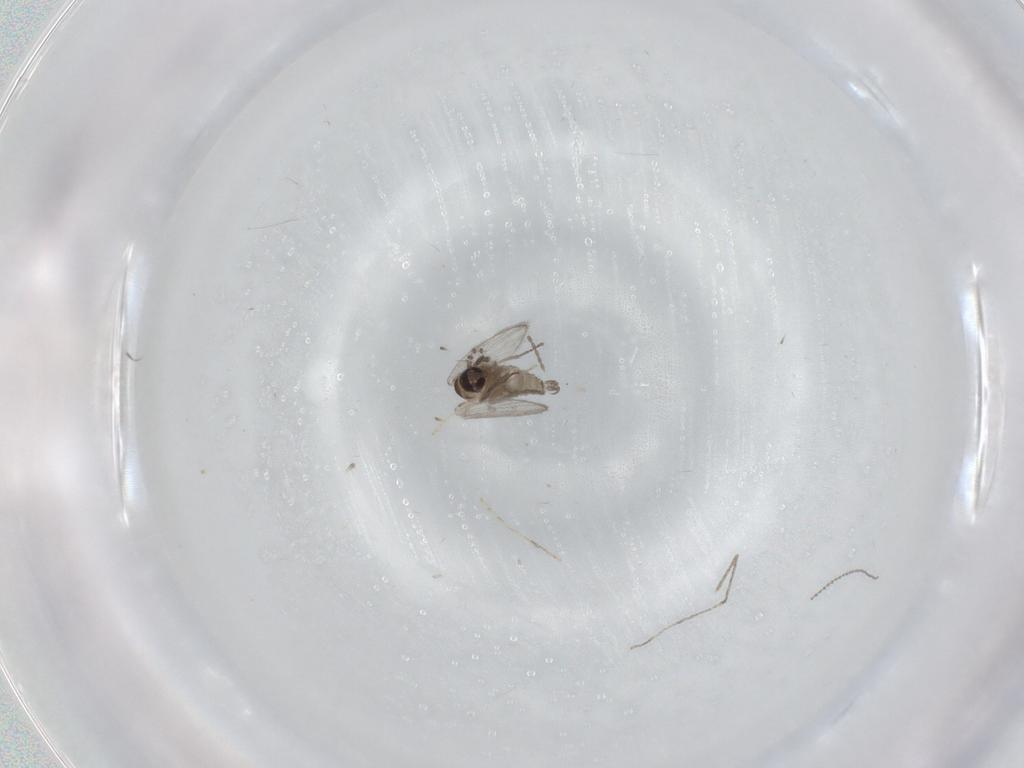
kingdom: Animalia
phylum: Arthropoda
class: Insecta
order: Diptera
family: Psychodidae
